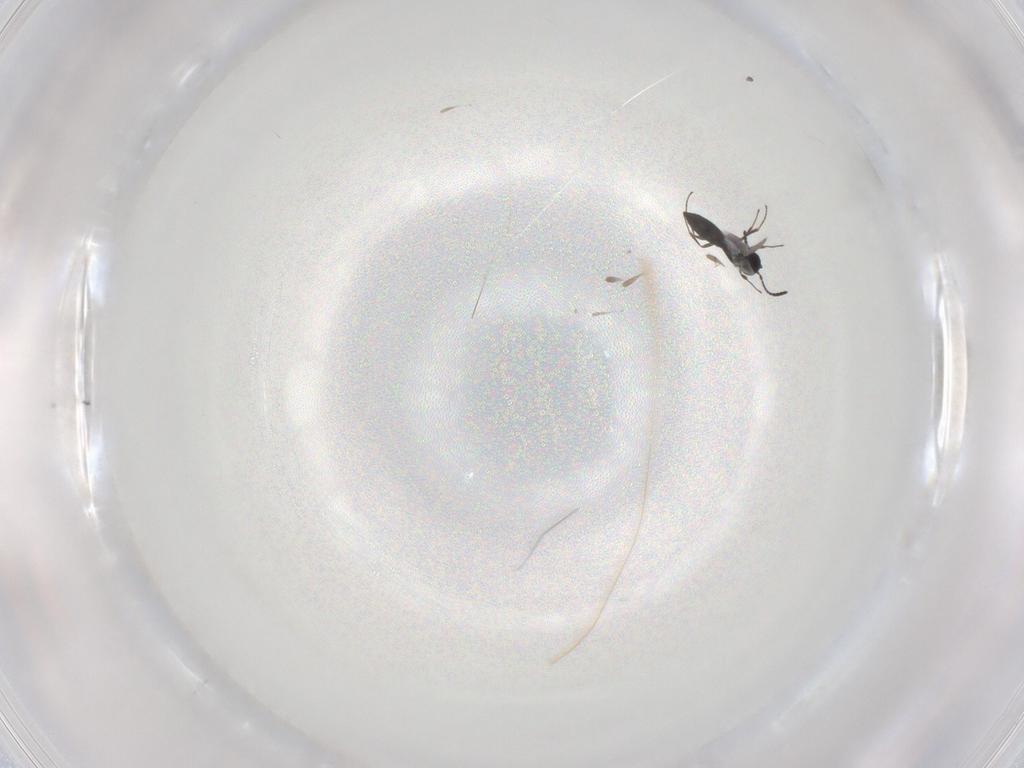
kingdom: Animalia
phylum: Arthropoda
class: Insecta
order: Hymenoptera
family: Scelionidae
